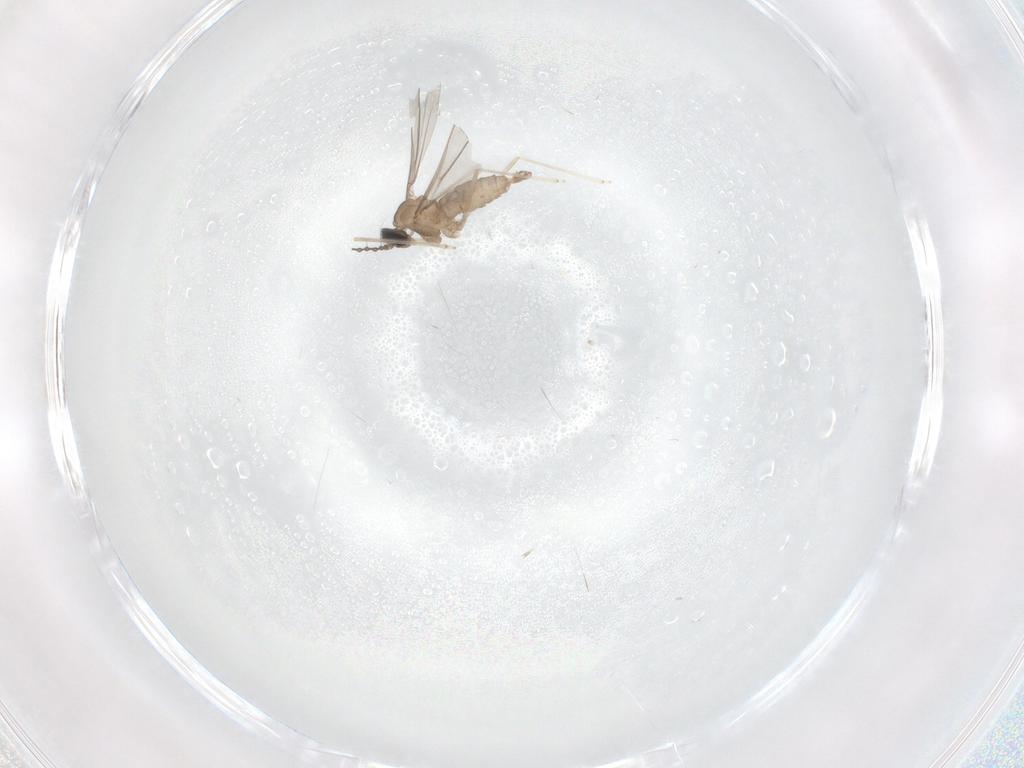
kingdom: Animalia
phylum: Arthropoda
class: Insecta
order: Diptera
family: Cecidomyiidae
